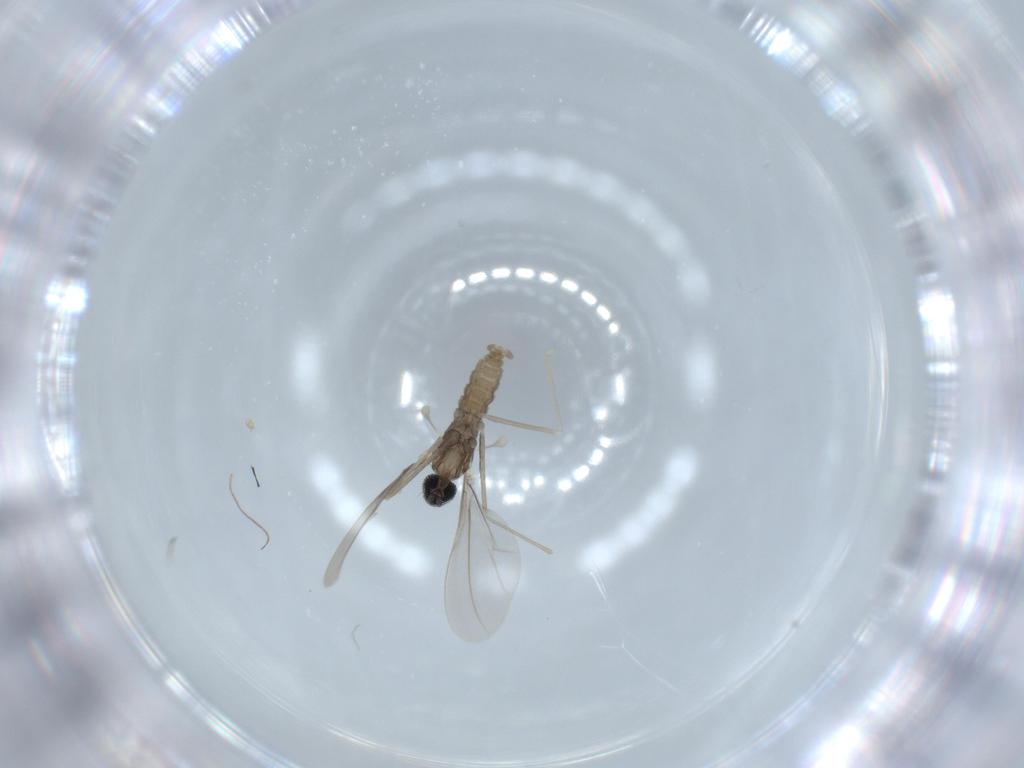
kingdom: Animalia
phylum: Arthropoda
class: Insecta
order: Diptera
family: Cecidomyiidae
